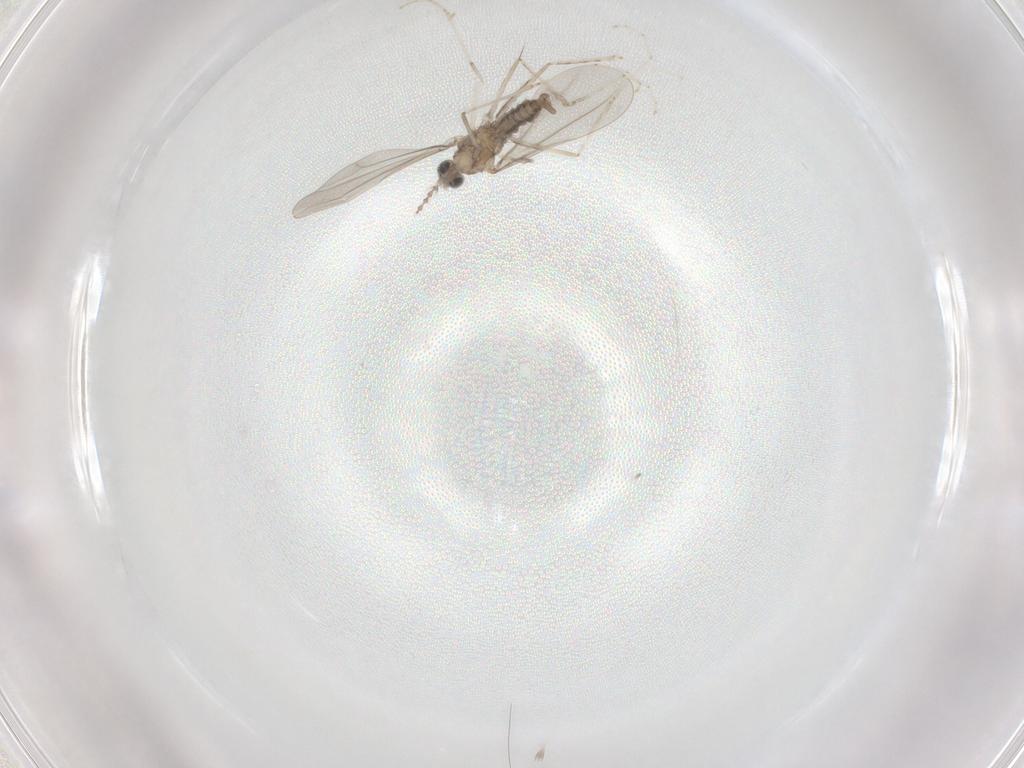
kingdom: Animalia
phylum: Arthropoda
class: Insecta
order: Diptera
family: Cecidomyiidae
